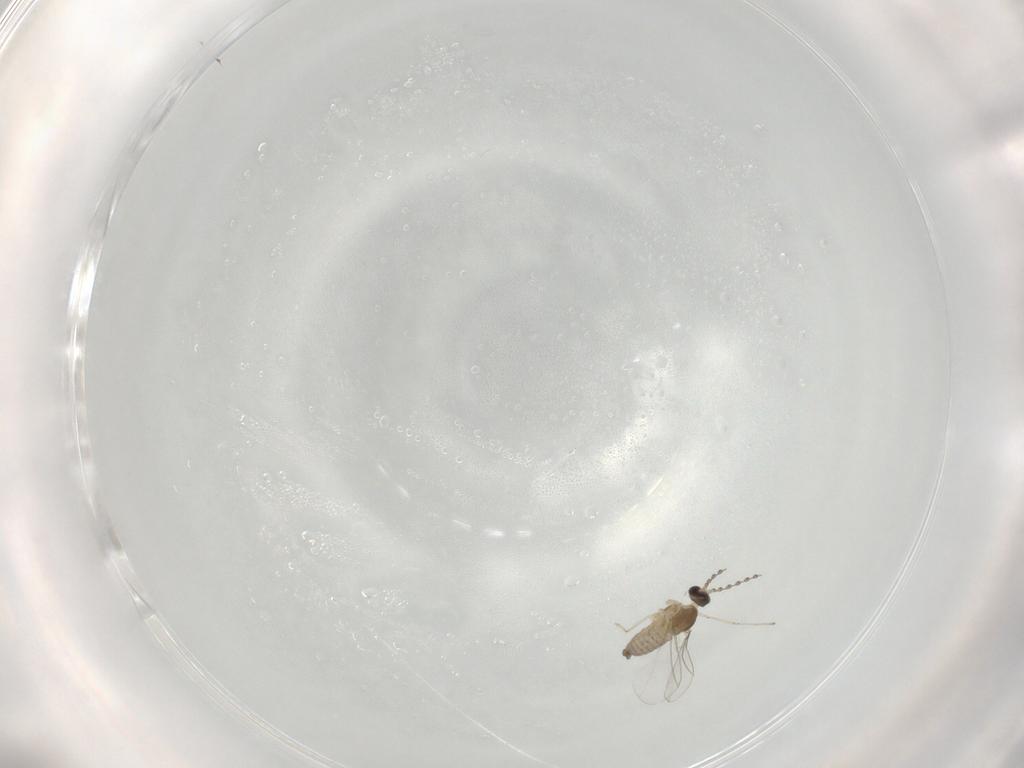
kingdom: Animalia
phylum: Arthropoda
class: Insecta
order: Diptera
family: Cecidomyiidae
